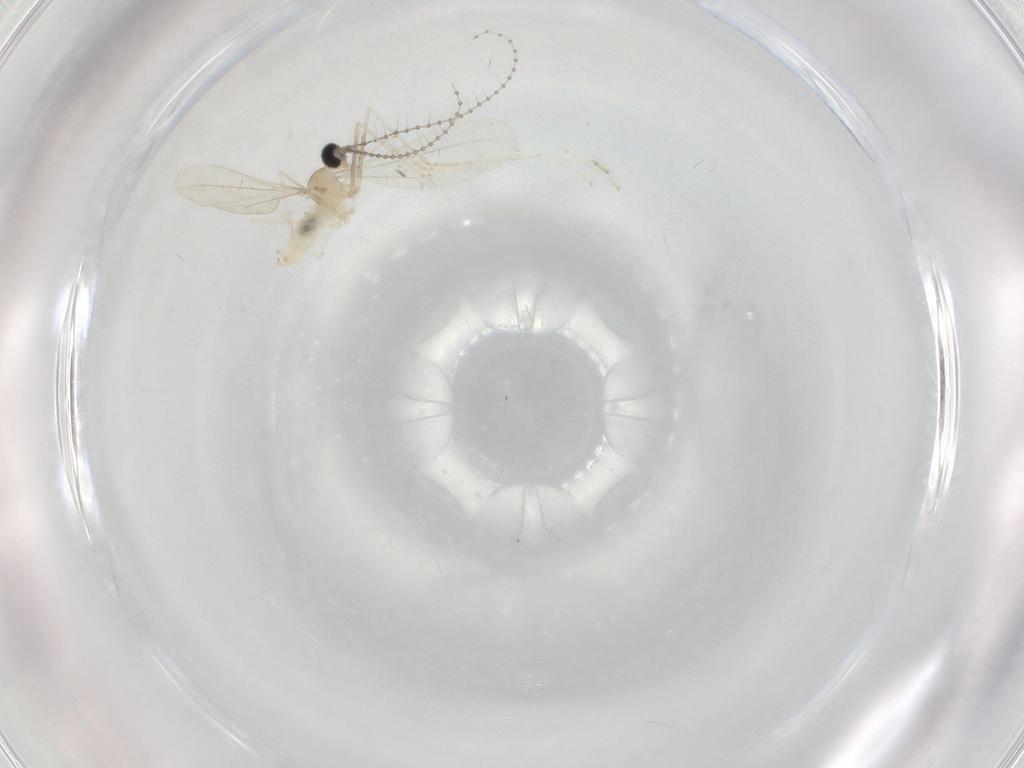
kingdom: Animalia
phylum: Arthropoda
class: Insecta
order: Diptera
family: Cecidomyiidae
